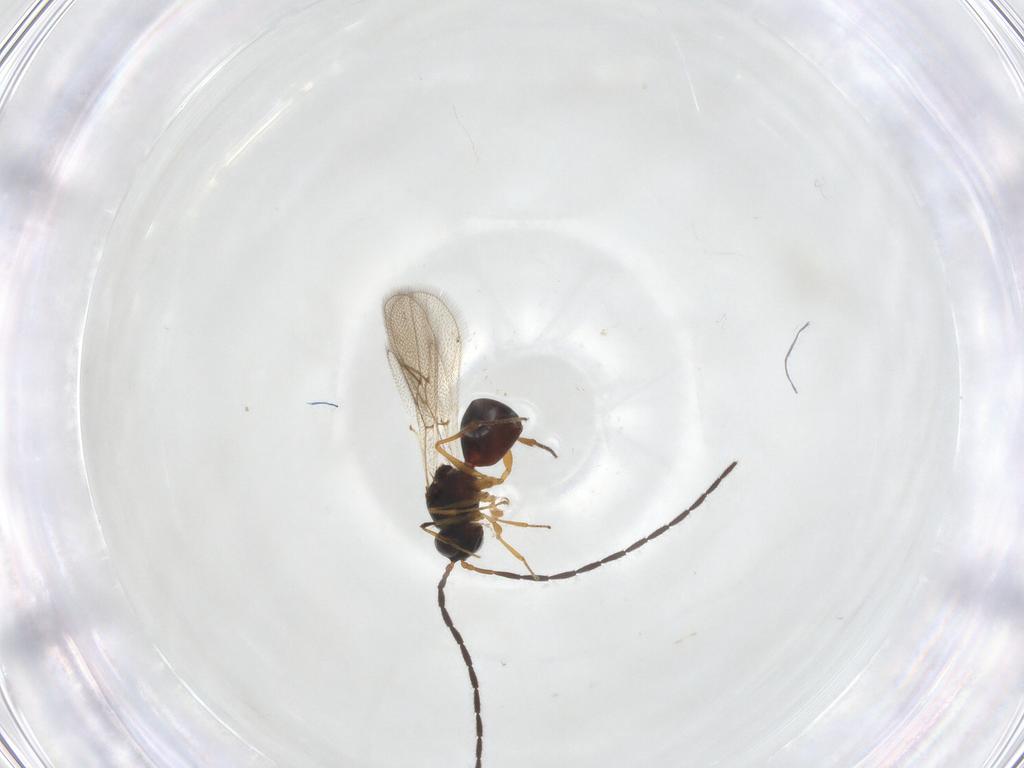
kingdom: Animalia
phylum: Arthropoda
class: Insecta
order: Hymenoptera
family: Figitidae
